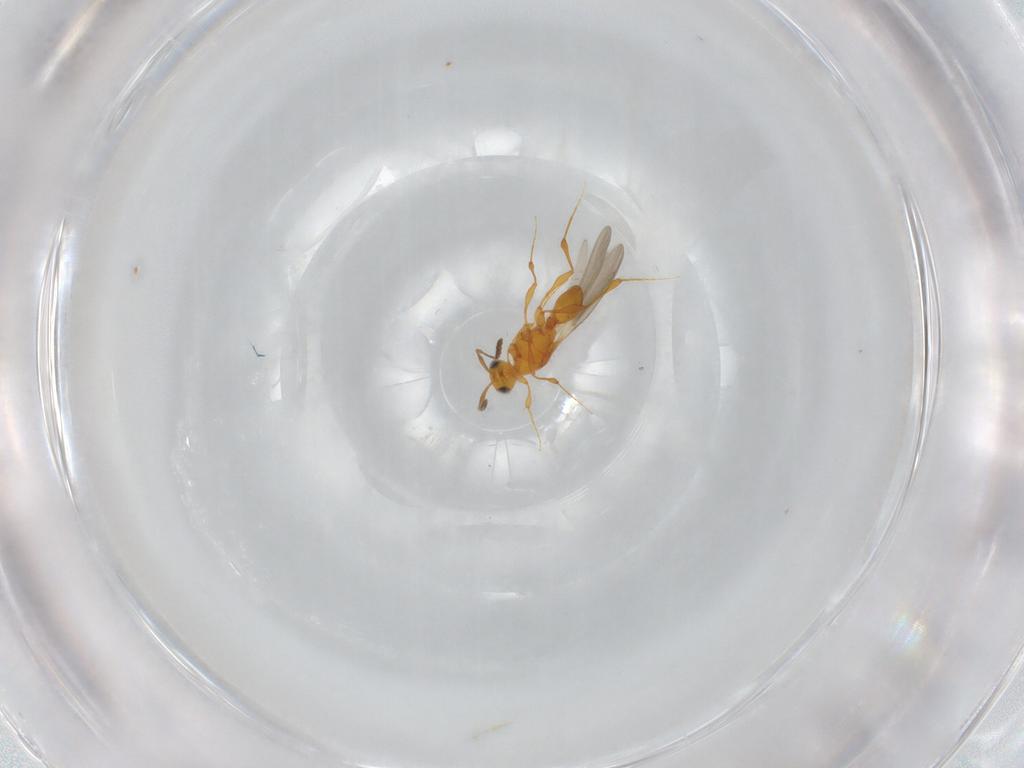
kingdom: Animalia
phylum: Arthropoda
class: Insecta
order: Hymenoptera
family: Platygastridae
